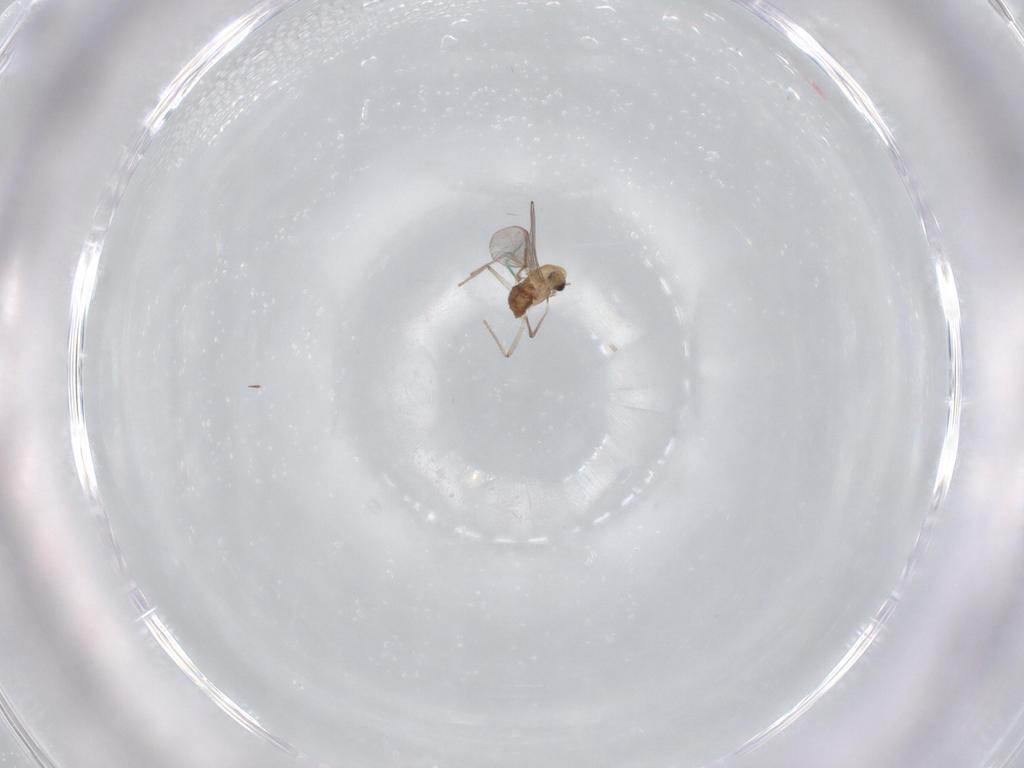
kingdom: Animalia
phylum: Arthropoda
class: Insecta
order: Diptera
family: Chironomidae
